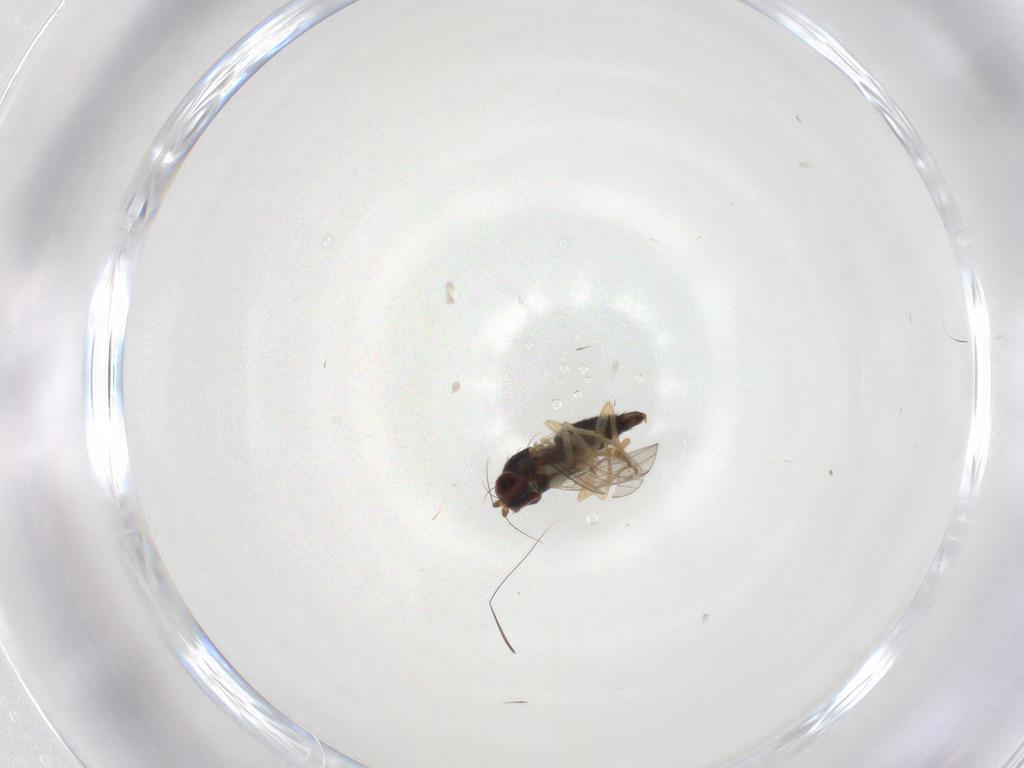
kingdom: Animalia
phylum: Arthropoda
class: Insecta
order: Diptera
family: Dolichopodidae
